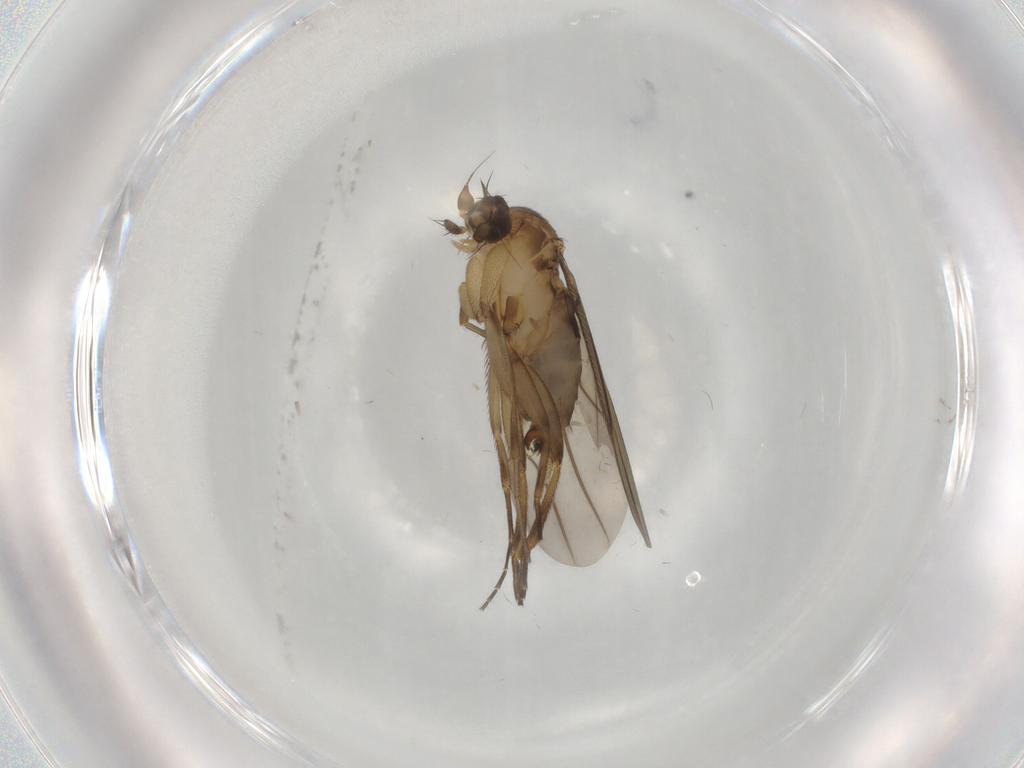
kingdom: Animalia
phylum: Arthropoda
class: Insecta
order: Diptera
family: Phoridae
